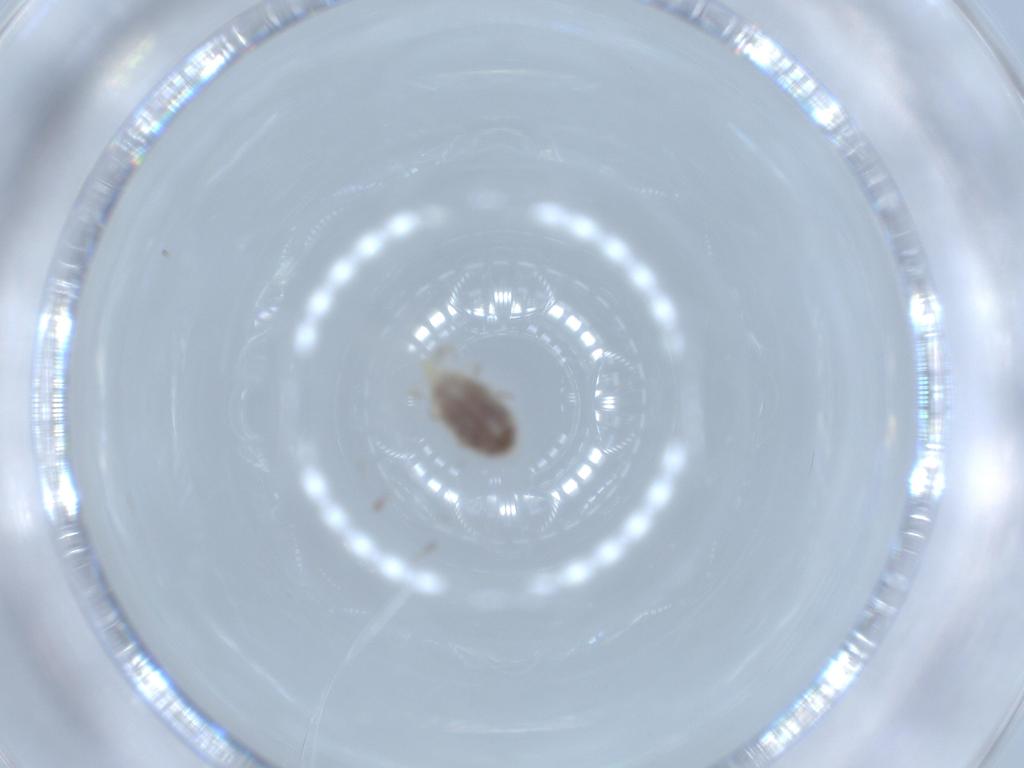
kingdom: Animalia
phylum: Arthropoda
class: Arachnida
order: Trombidiformes
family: Erythraeidae
